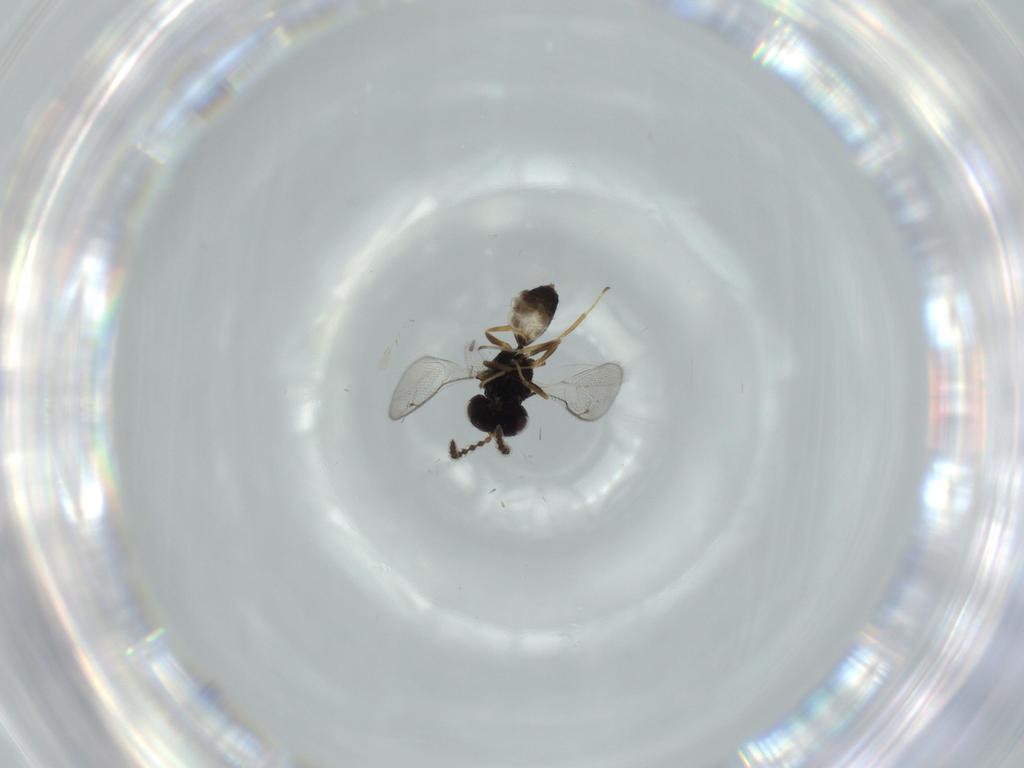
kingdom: Animalia
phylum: Arthropoda
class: Insecta
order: Hymenoptera
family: Pteromalidae
